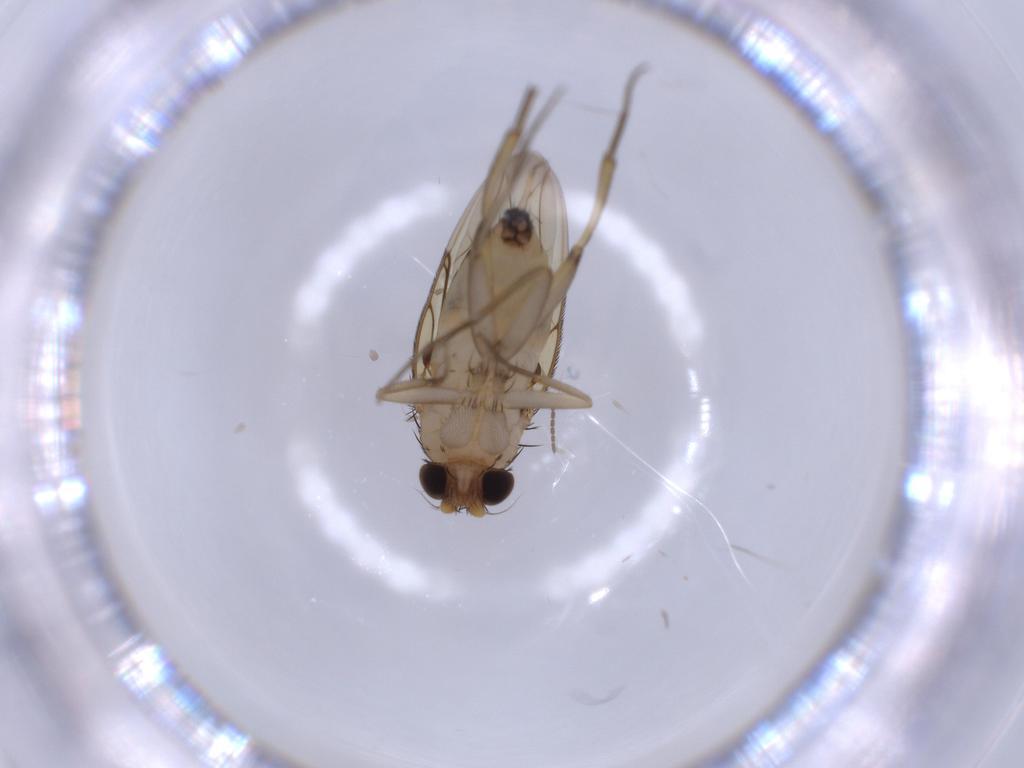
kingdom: Animalia
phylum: Arthropoda
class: Insecta
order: Diptera
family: Phoridae
